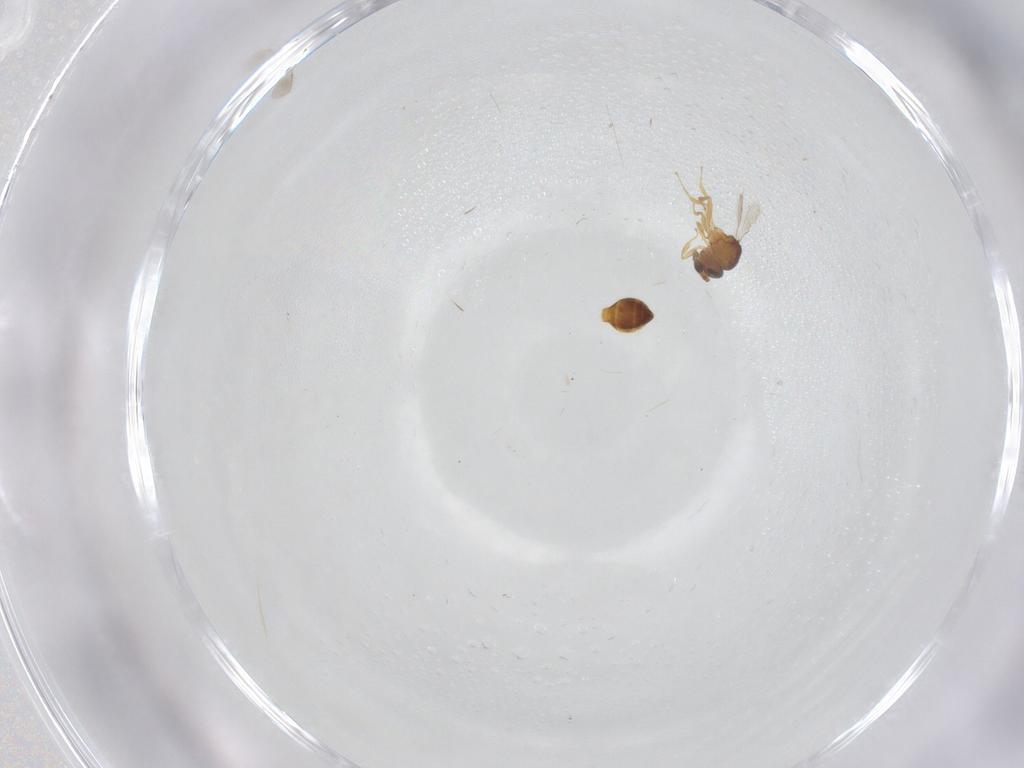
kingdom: Animalia
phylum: Arthropoda
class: Insecta
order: Hymenoptera
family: Scelionidae
